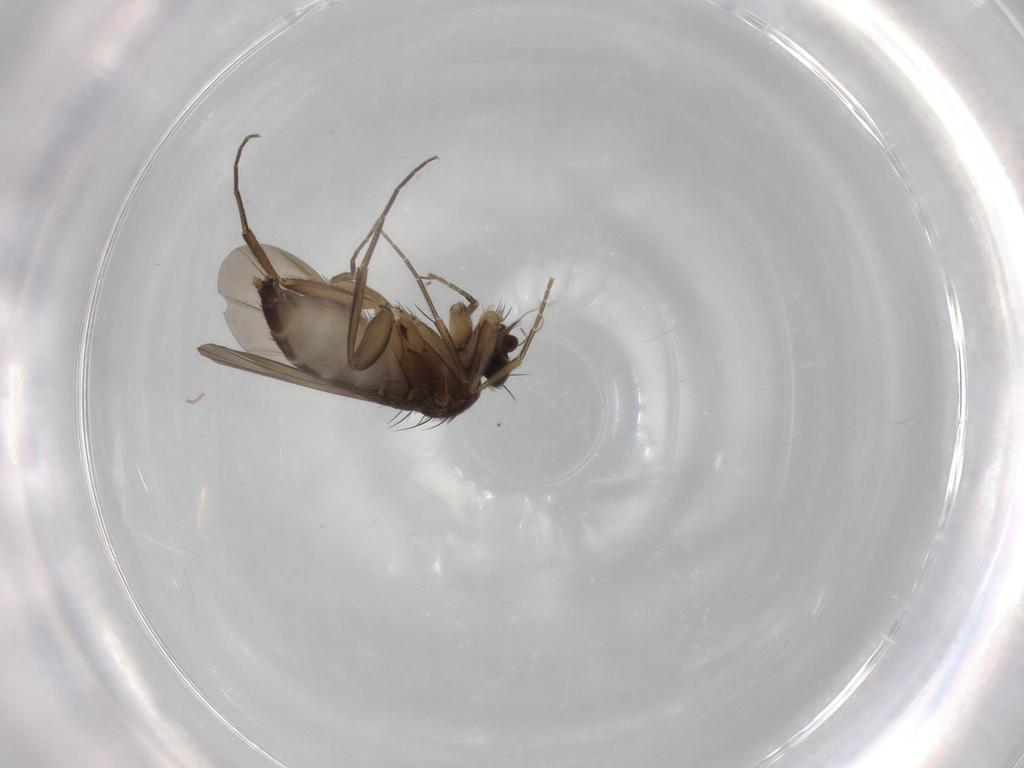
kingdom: Animalia
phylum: Arthropoda
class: Insecta
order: Diptera
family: Phoridae
